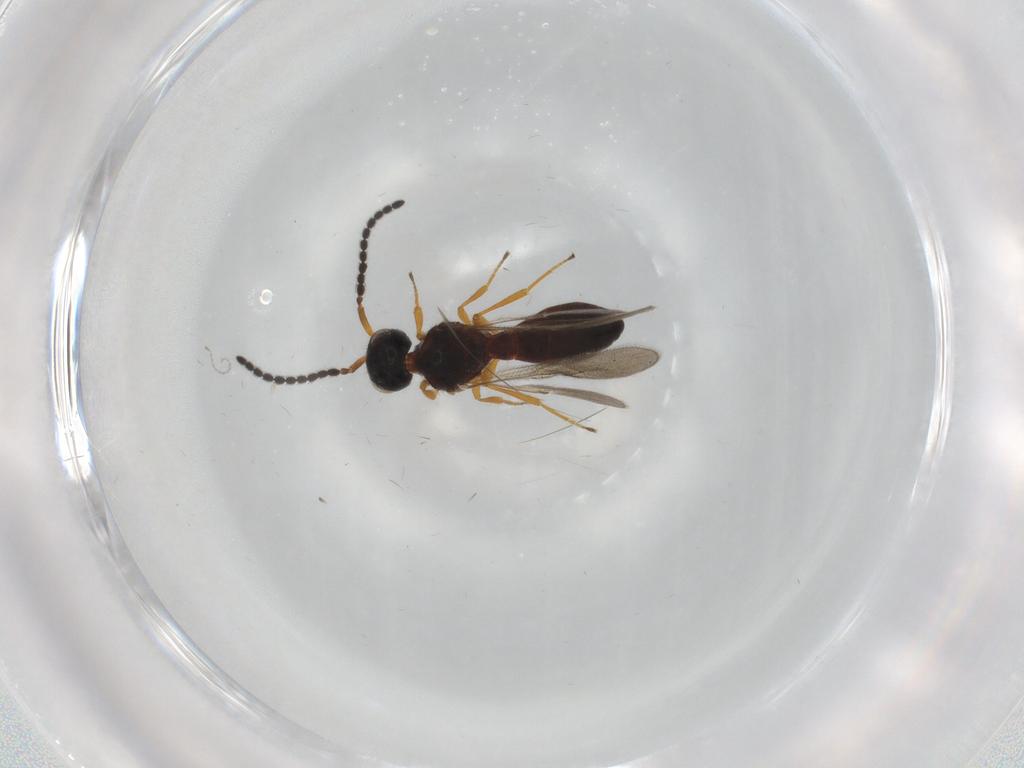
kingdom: Animalia
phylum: Arthropoda
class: Insecta
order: Hymenoptera
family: Scelionidae
